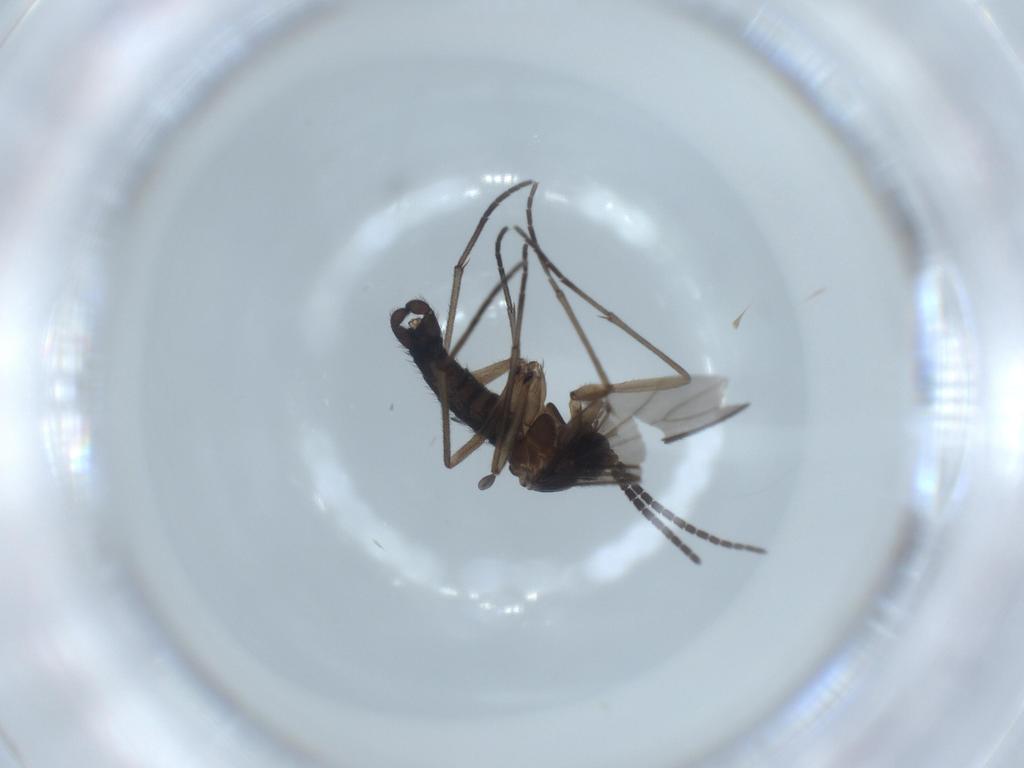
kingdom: Animalia
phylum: Arthropoda
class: Insecta
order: Diptera
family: Sciaridae
